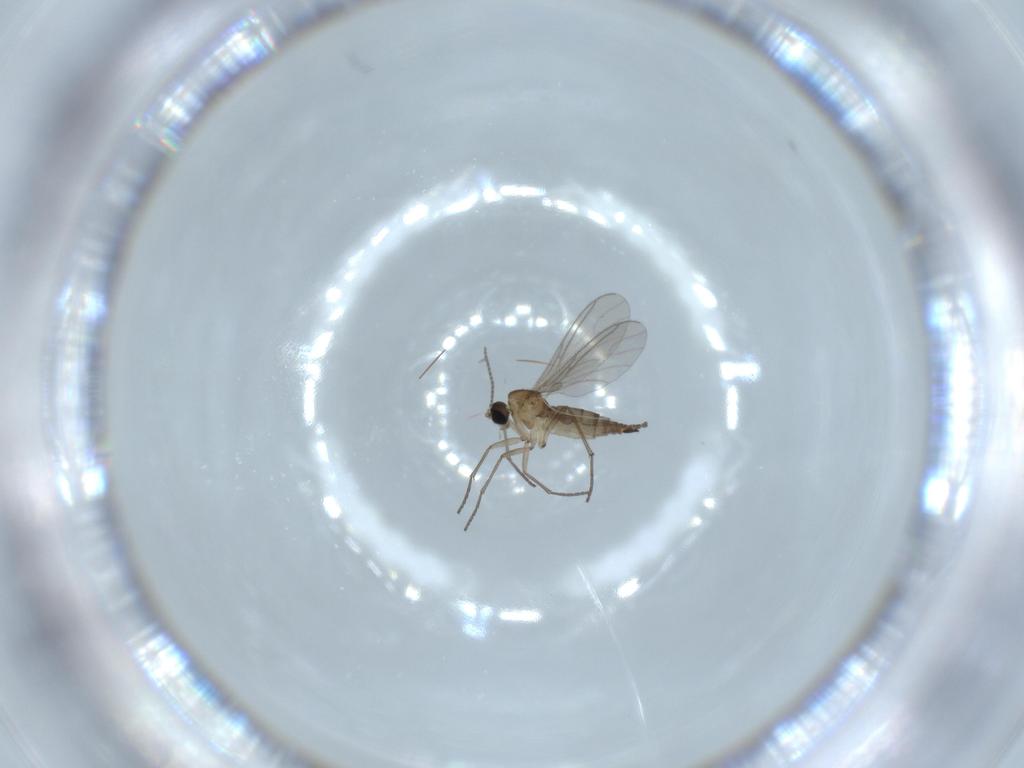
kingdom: Animalia
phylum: Arthropoda
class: Insecta
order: Diptera
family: Sciaridae
